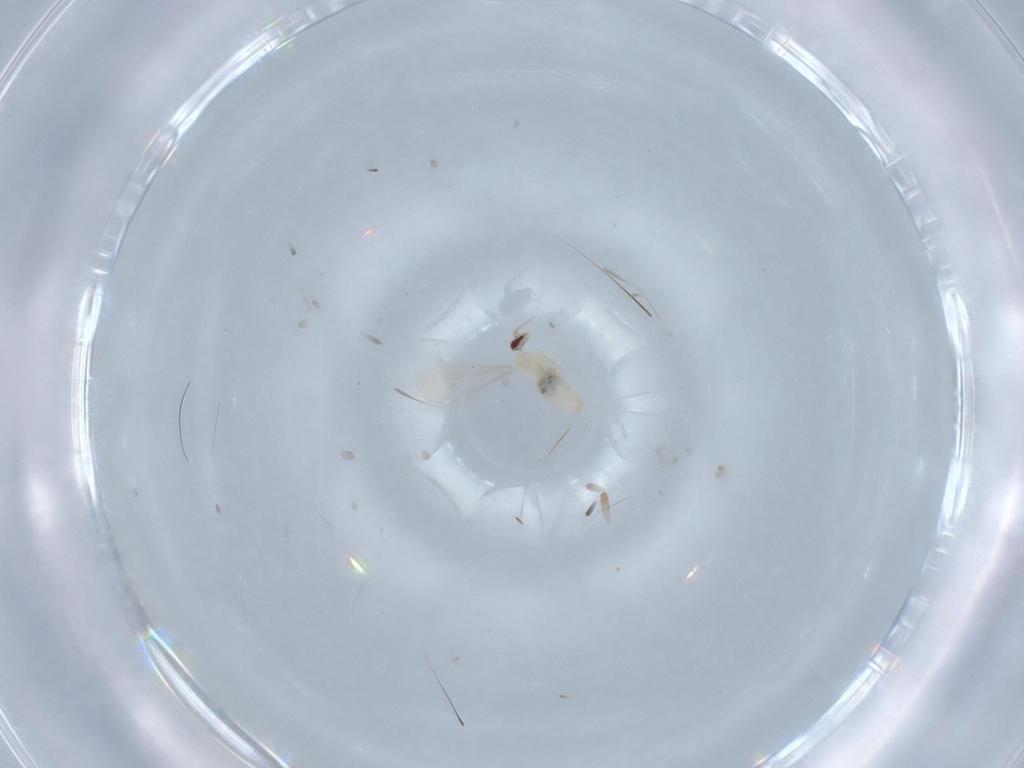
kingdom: Animalia
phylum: Arthropoda
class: Insecta
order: Diptera
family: Cecidomyiidae
